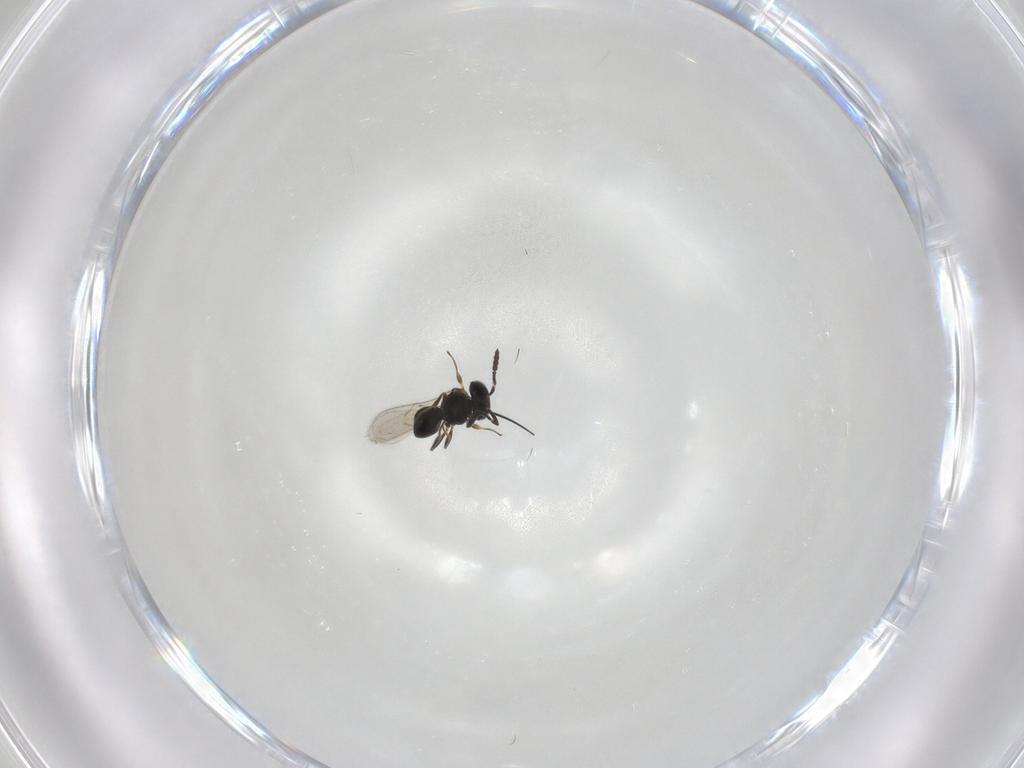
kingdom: Animalia
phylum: Arthropoda
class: Insecta
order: Hymenoptera
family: Scelionidae
